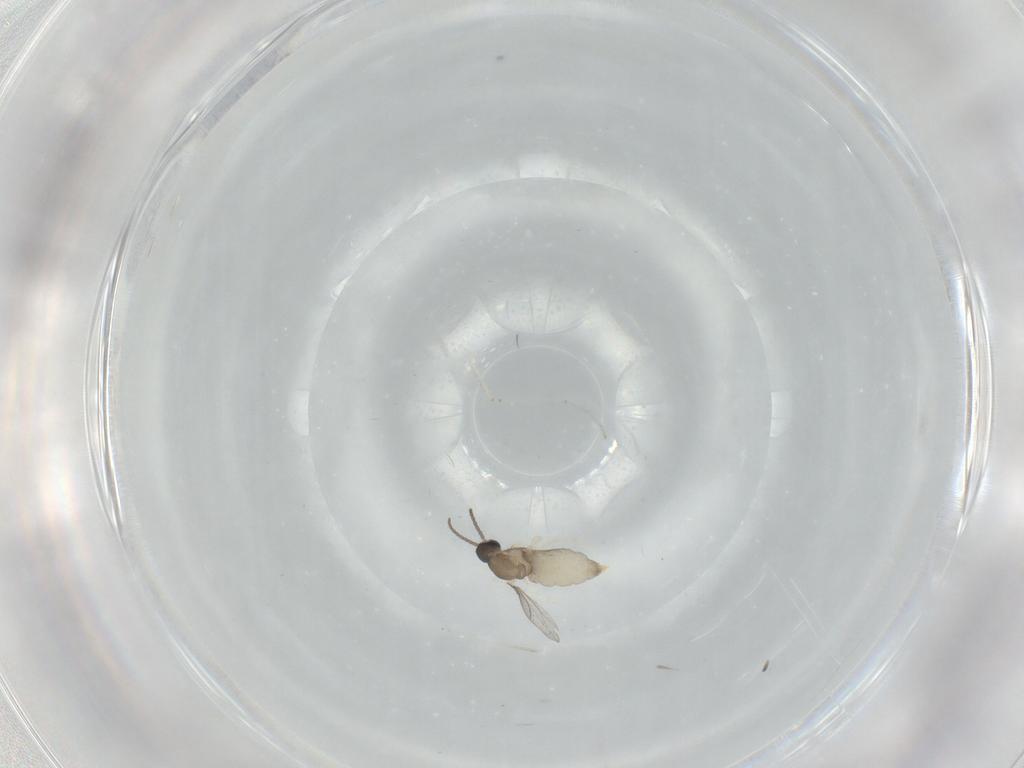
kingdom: Animalia
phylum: Arthropoda
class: Insecta
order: Diptera
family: Cecidomyiidae
